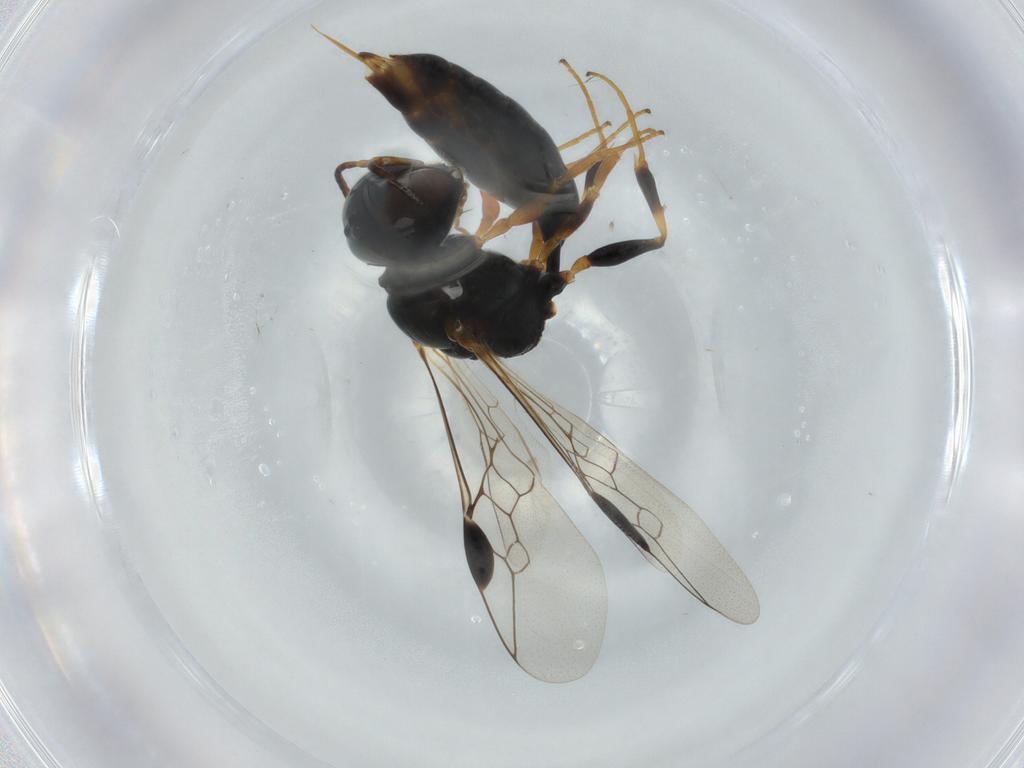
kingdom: Animalia
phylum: Arthropoda
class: Insecta
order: Hymenoptera
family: Pemphredonidae
